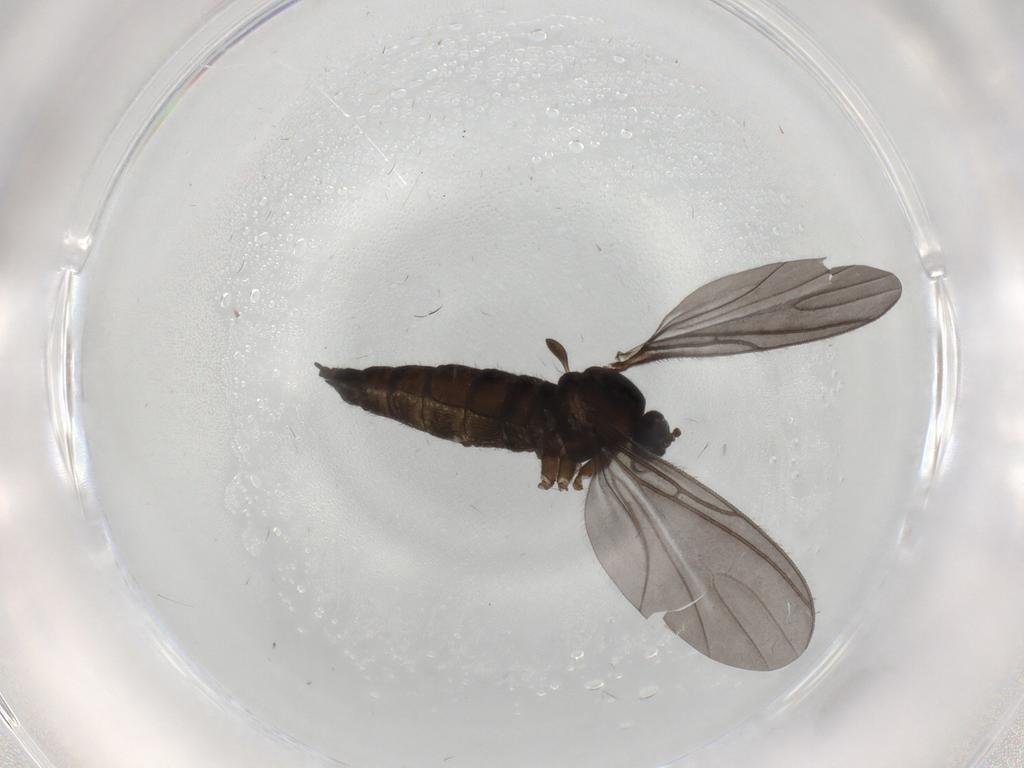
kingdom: Animalia
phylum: Arthropoda
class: Insecta
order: Diptera
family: Sciaridae
